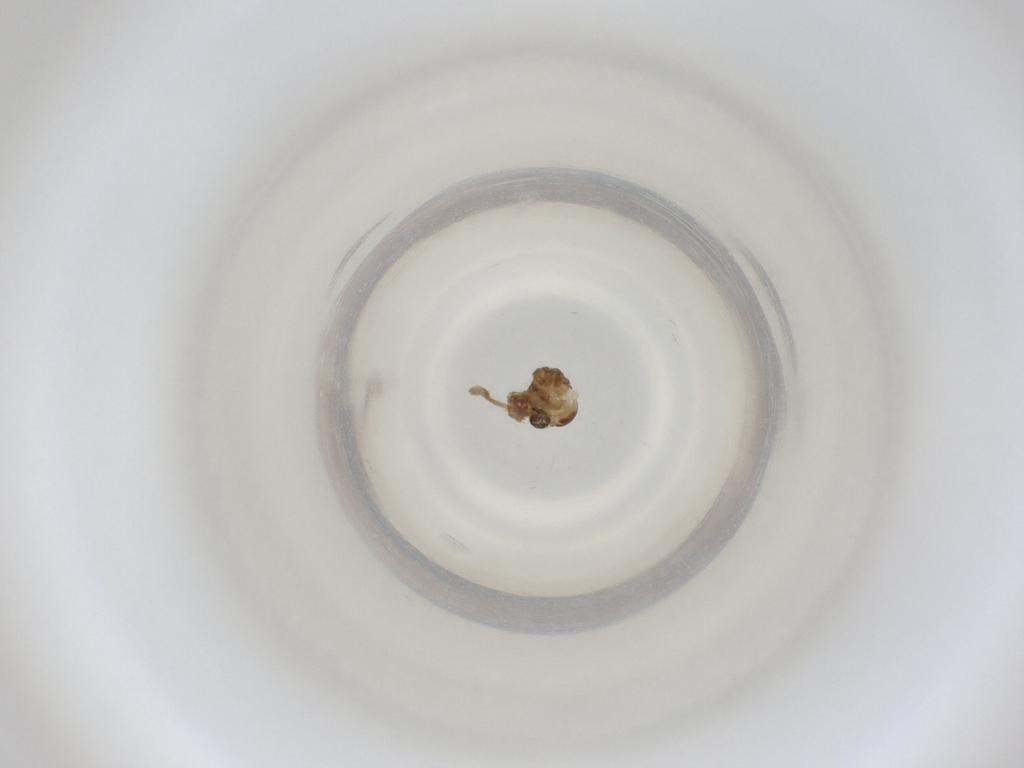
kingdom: Animalia
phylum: Arthropoda
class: Insecta
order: Diptera
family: Cecidomyiidae
